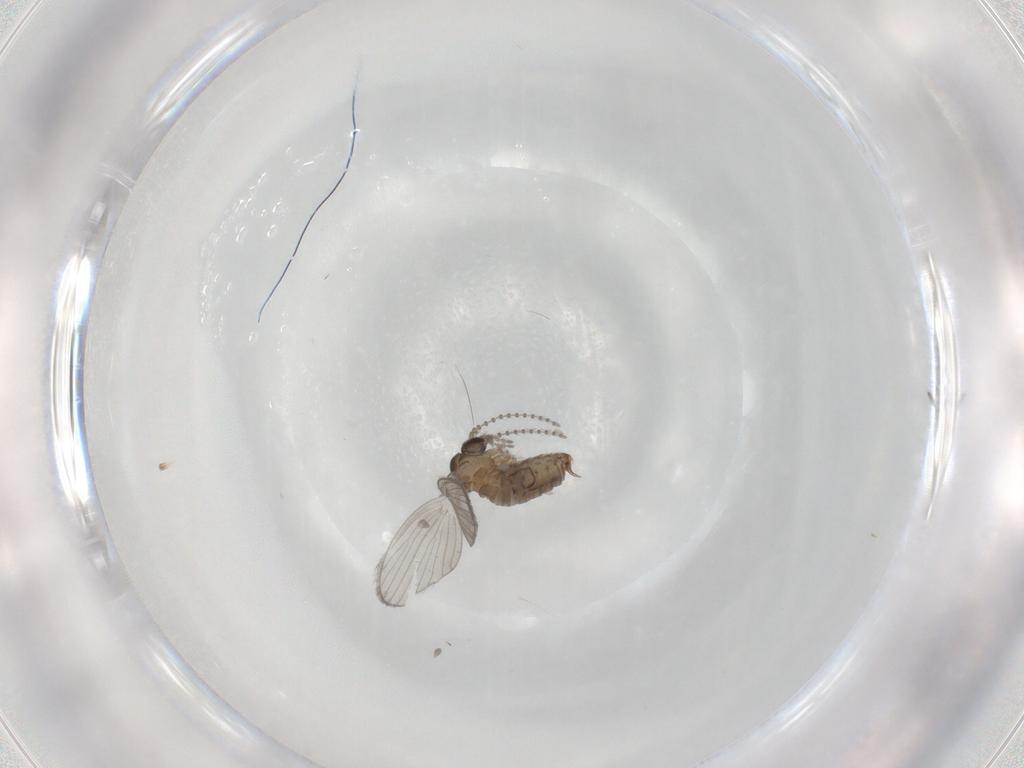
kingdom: Animalia
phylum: Arthropoda
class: Insecta
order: Diptera
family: Psychodidae
